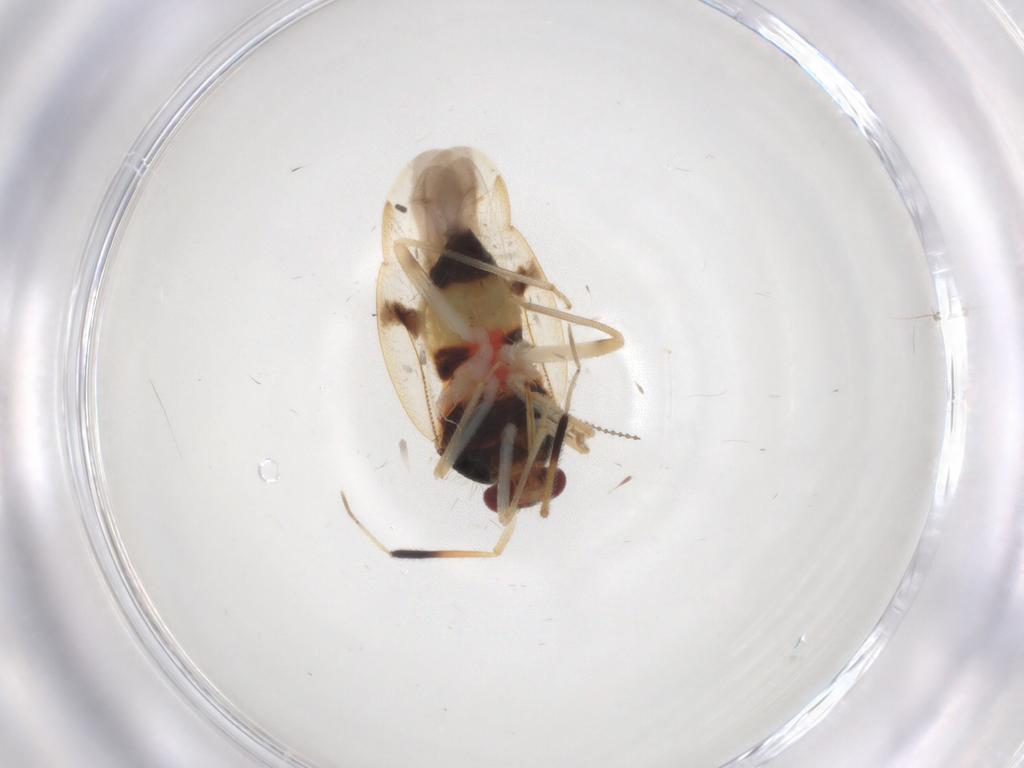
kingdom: Animalia
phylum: Arthropoda
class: Insecta
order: Hemiptera
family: Miridae
